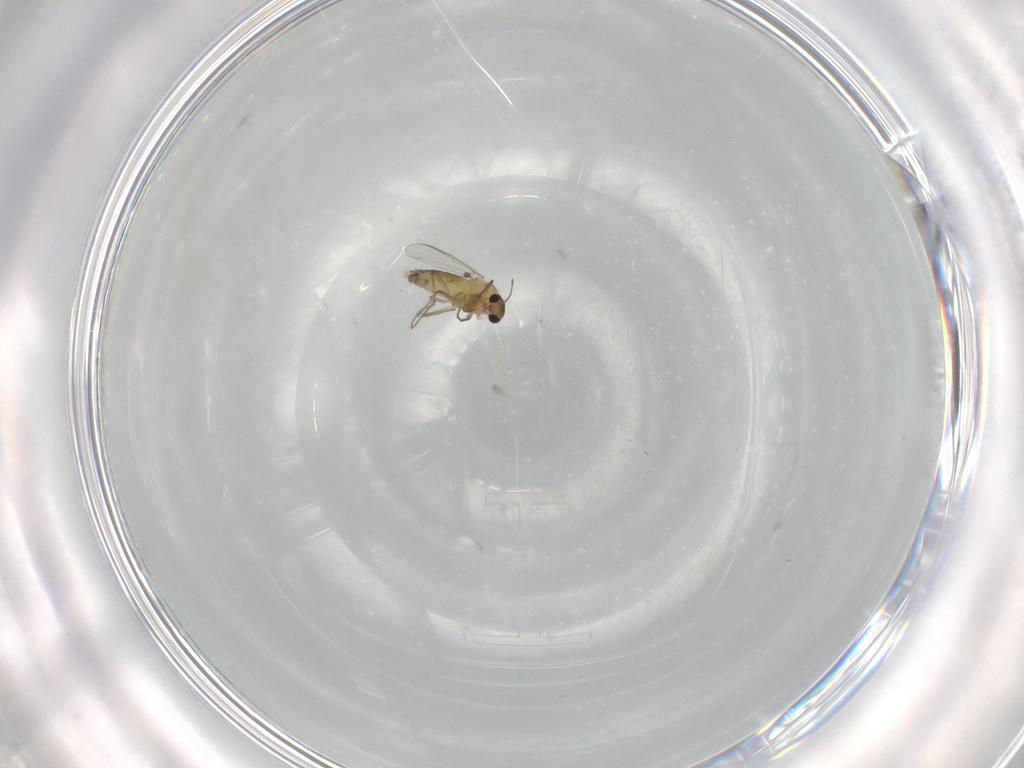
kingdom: Animalia
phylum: Arthropoda
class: Insecta
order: Diptera
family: Chironomidae
